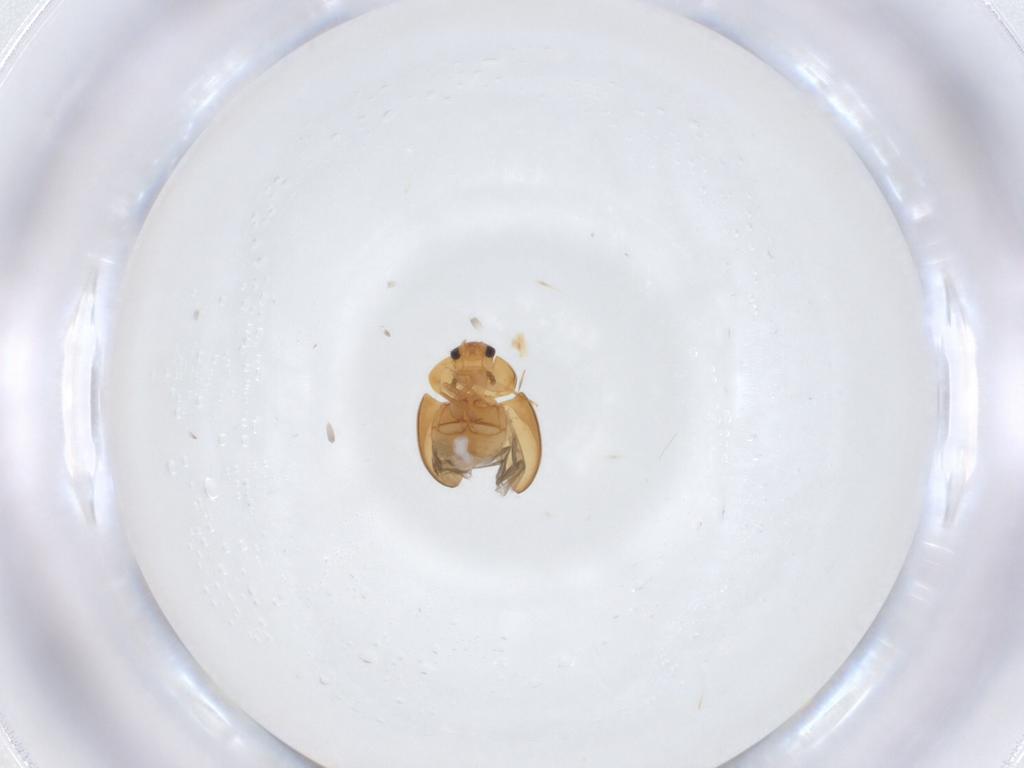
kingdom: Animalia
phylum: Arthropoda
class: Insecta
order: Coleoptera
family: Phalacridae
